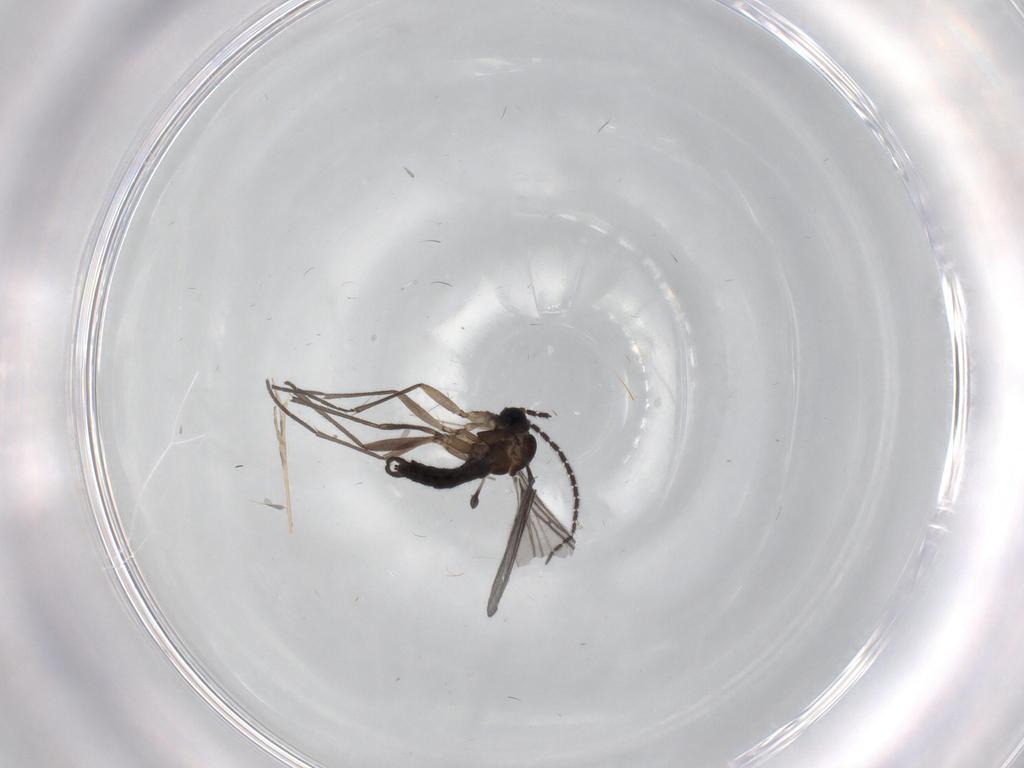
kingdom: Animalia
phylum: Arthropoda
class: Insecta
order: Diptera
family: Sciaridae
